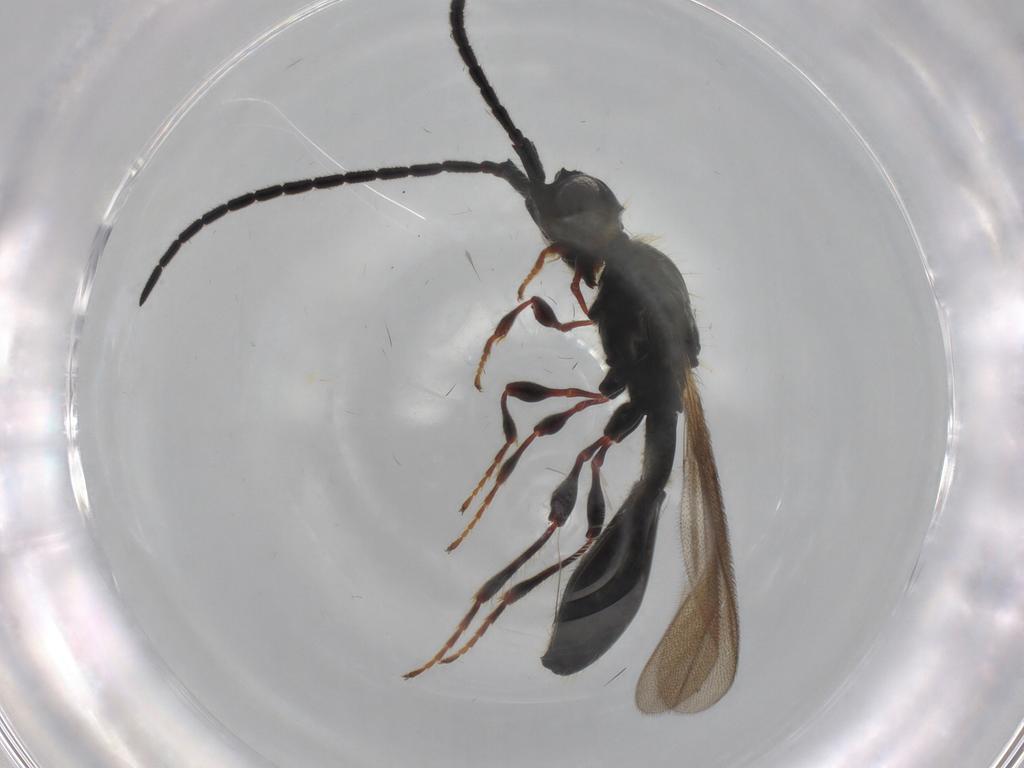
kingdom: Animalia
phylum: Arthropoda
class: Insecta
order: Hymenoptera
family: Diapriidae
